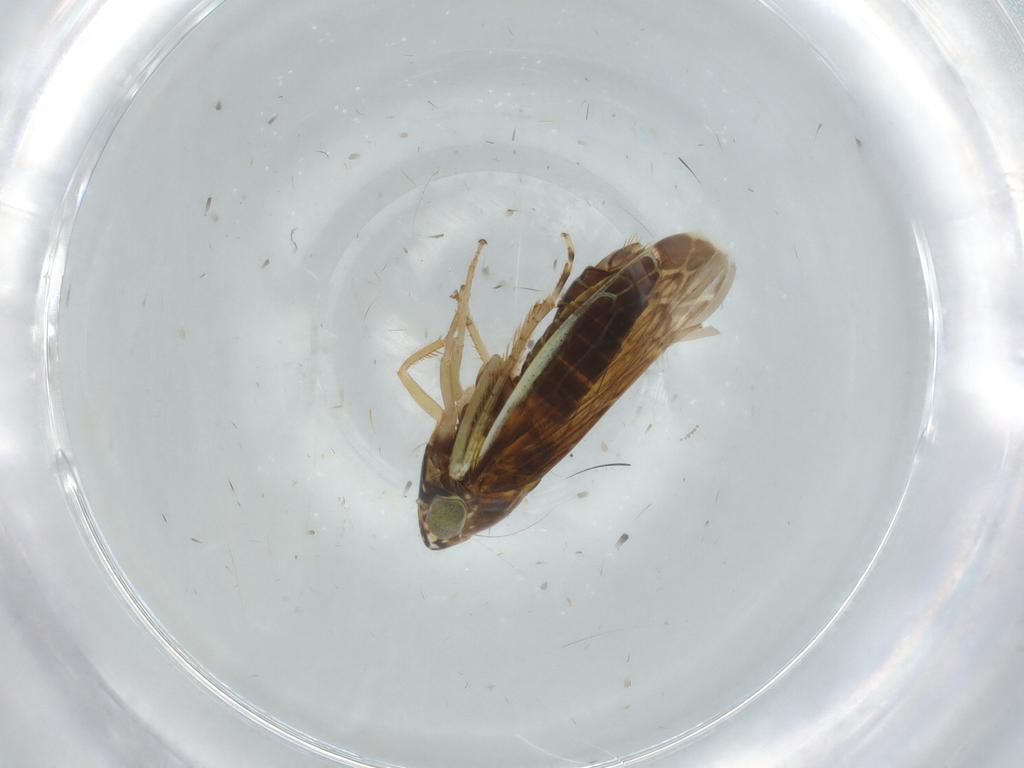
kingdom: Animalia
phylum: Arthropoda
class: Insecta
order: Hemiptera
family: Cicadellidae
